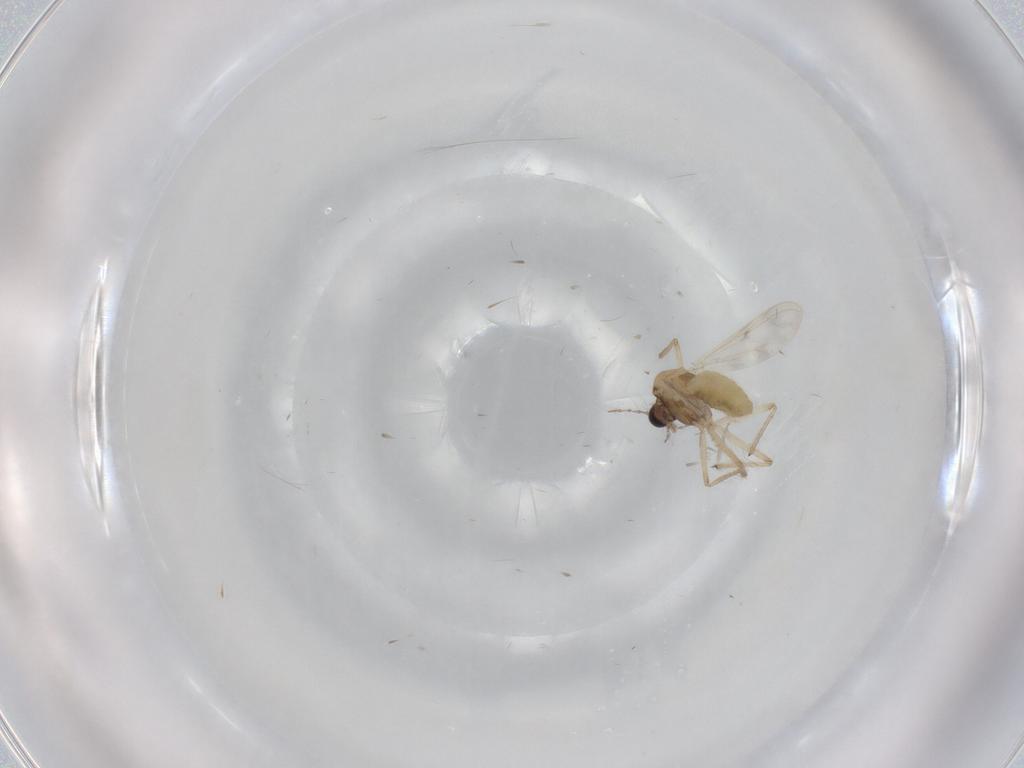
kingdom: Animalia
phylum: Arthropoda
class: Insecta
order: Diptera
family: Chironomidae
